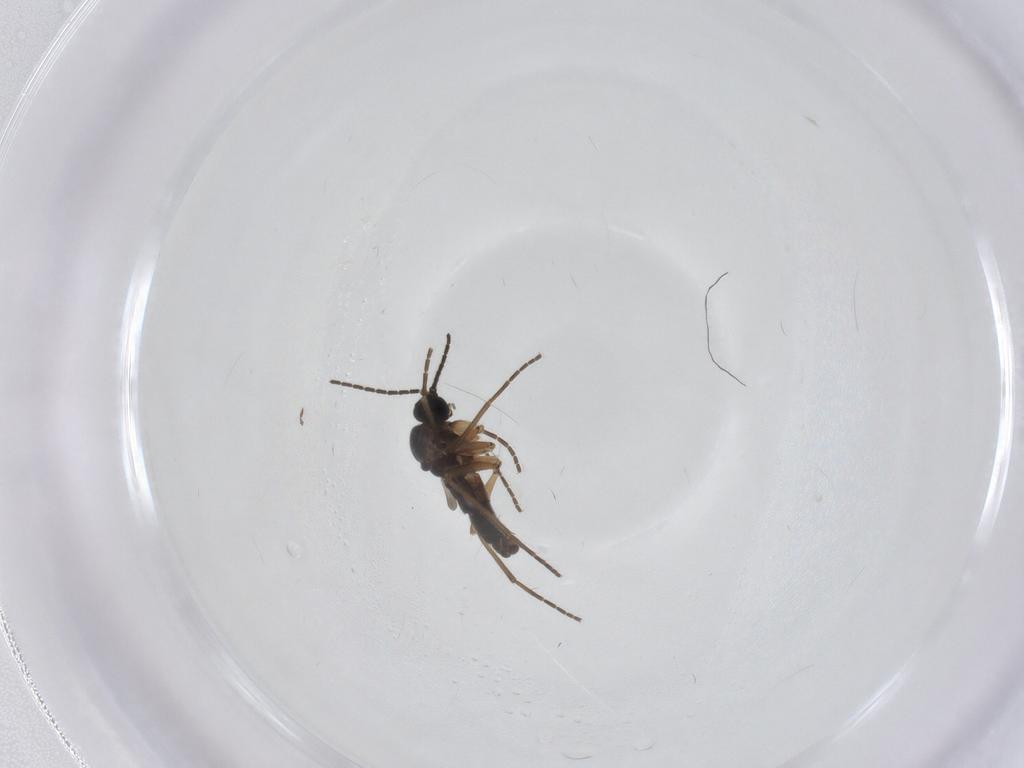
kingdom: Animalia
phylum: Arthropoda
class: Insecta
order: Diptera
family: Sciaridae
